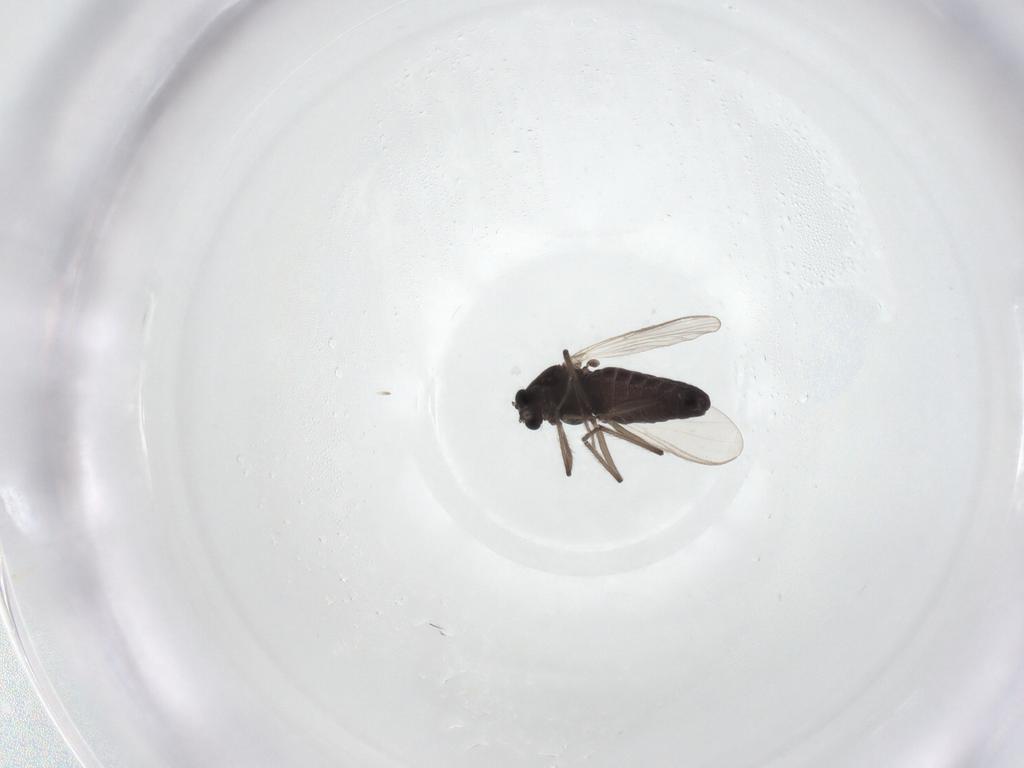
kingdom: Animalia
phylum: Arthropoda
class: Insecta
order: Diptera
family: Chironomidae
